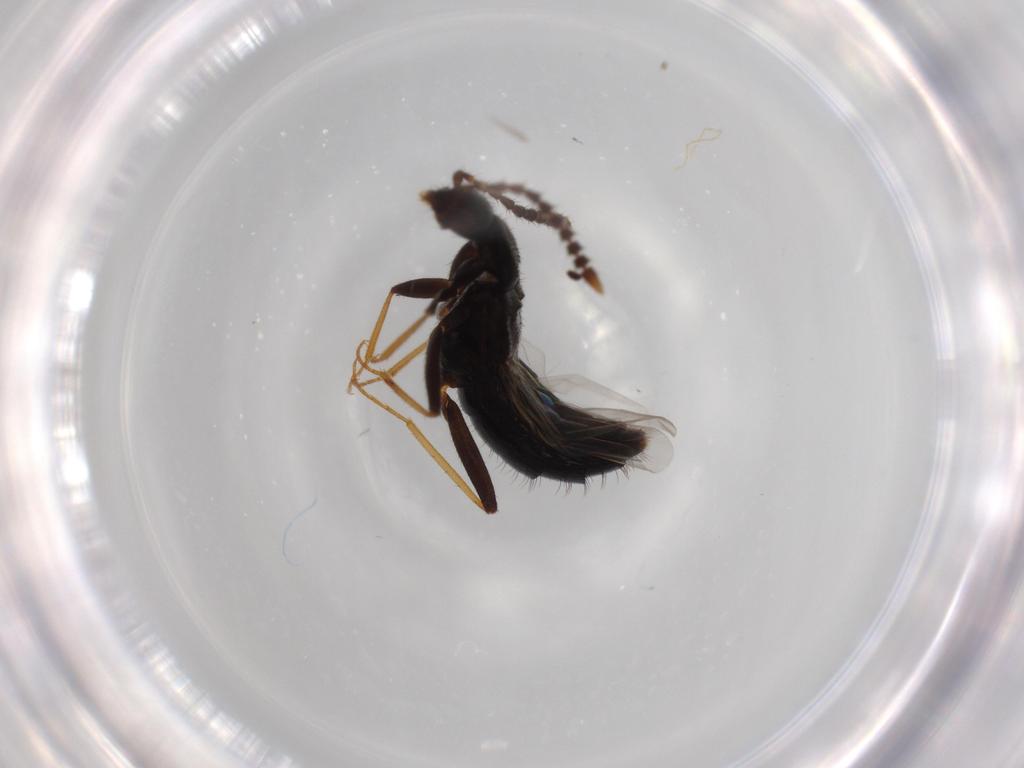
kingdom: Animalia
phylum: Arthropoda
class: Insecta
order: Coleoptera
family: Staphylinidae
